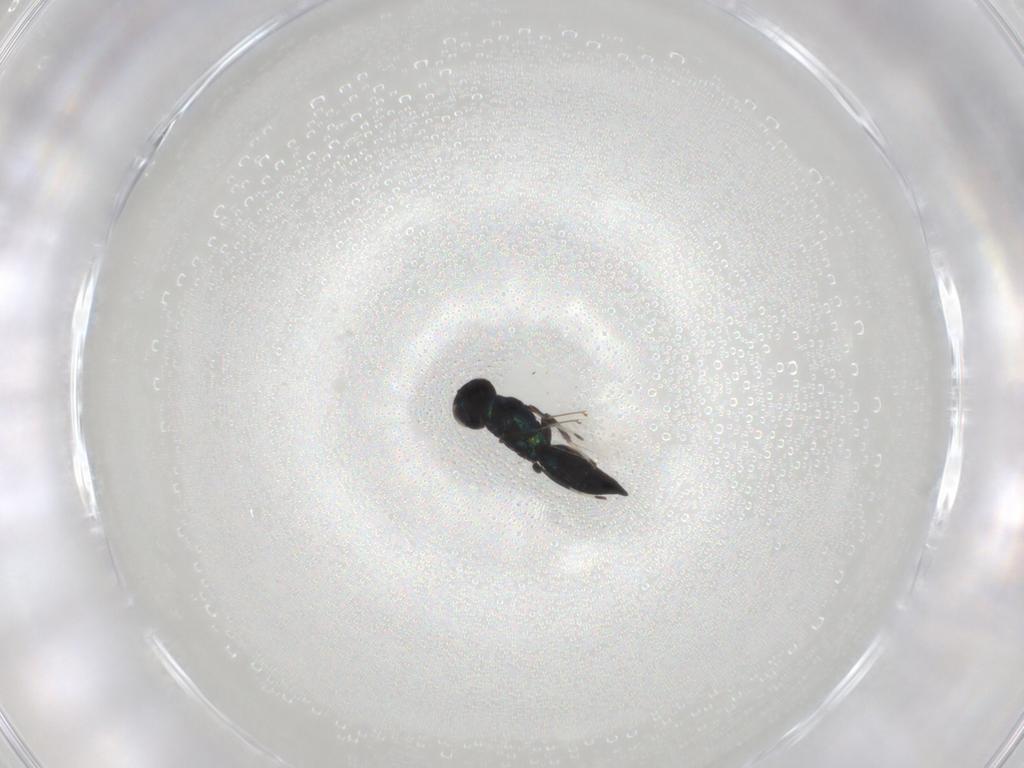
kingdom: Animalia
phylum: Arthropoda
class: Insecta
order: Hymenoptera
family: Eulophidae
